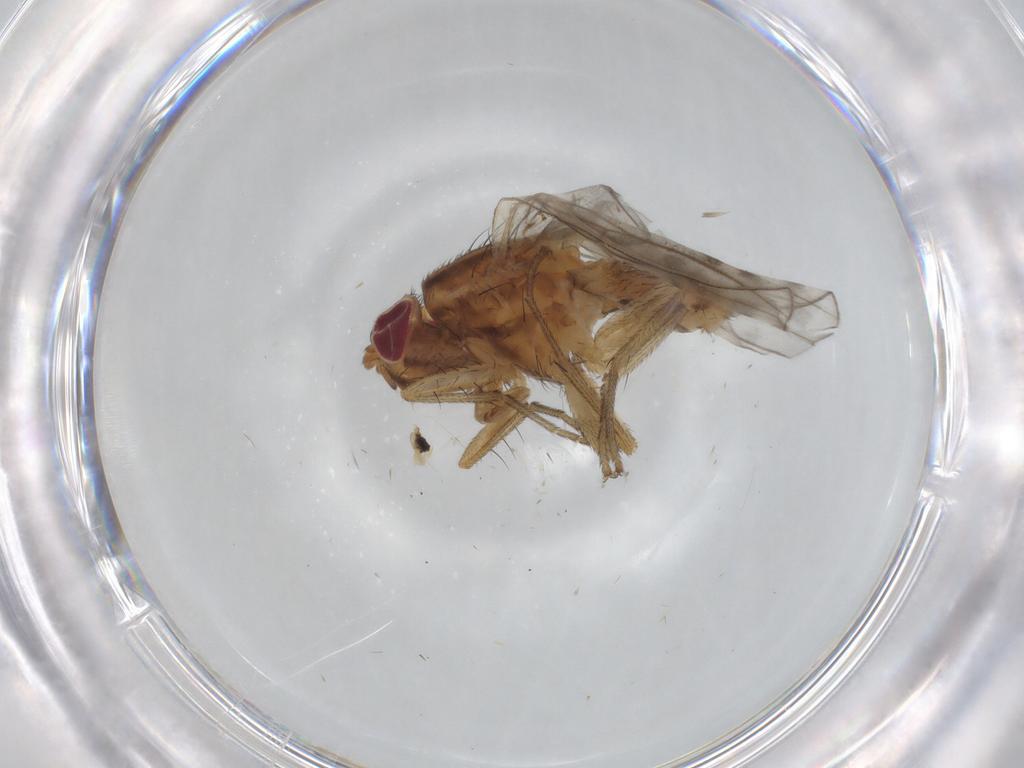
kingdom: Animalia
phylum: Arthropoda
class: Insecta
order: Diptera
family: Lauxaniidae
